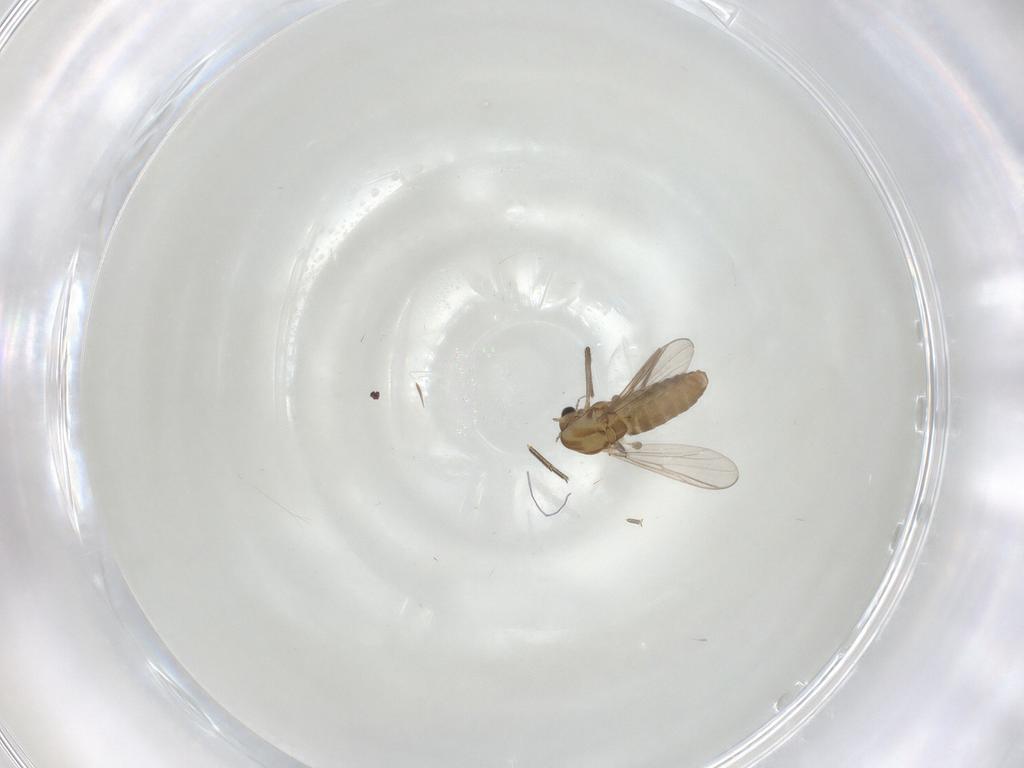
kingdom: Animalia
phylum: Arthropoda
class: Insecta
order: Diptera
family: Chironomidae
